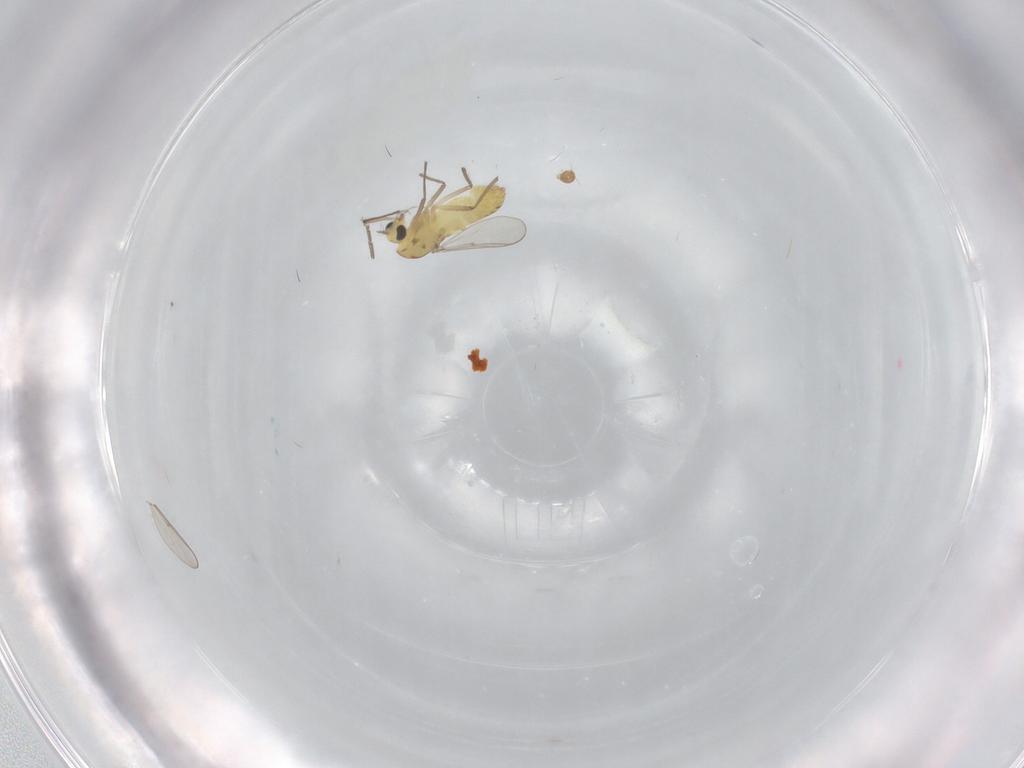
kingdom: Animalia
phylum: Arthropoda
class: Insecta
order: Diptera
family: Chironomidae
